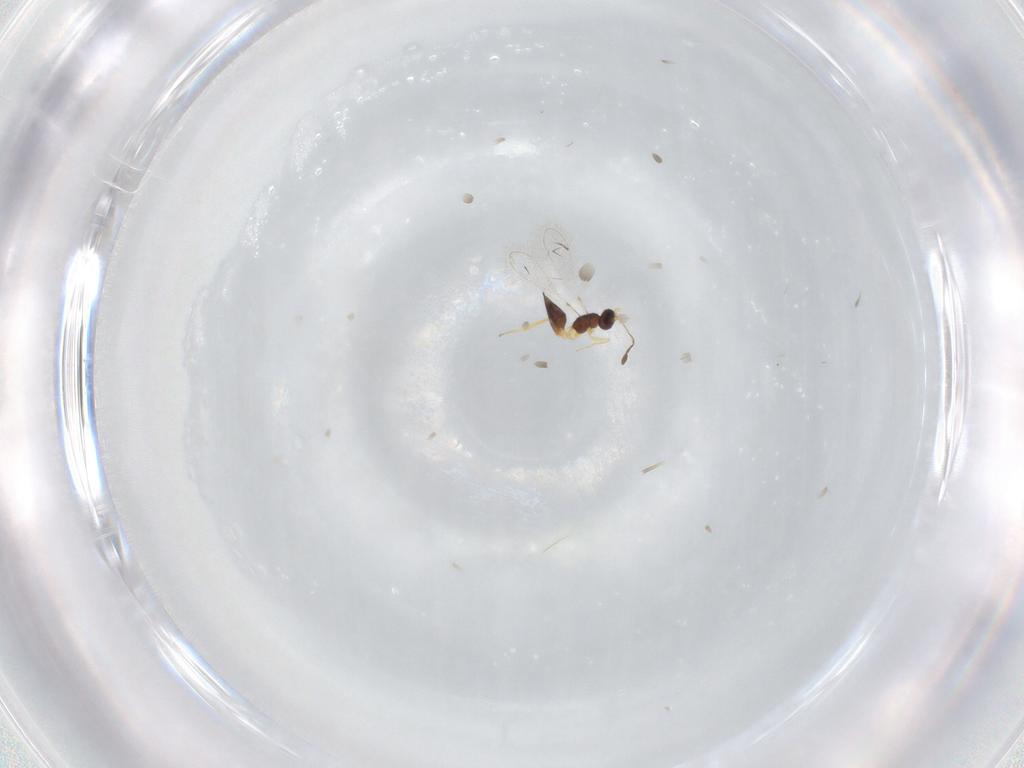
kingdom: Animalia
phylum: Arthropoda
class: Insecta
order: Hymenoptera
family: Mymaridae
